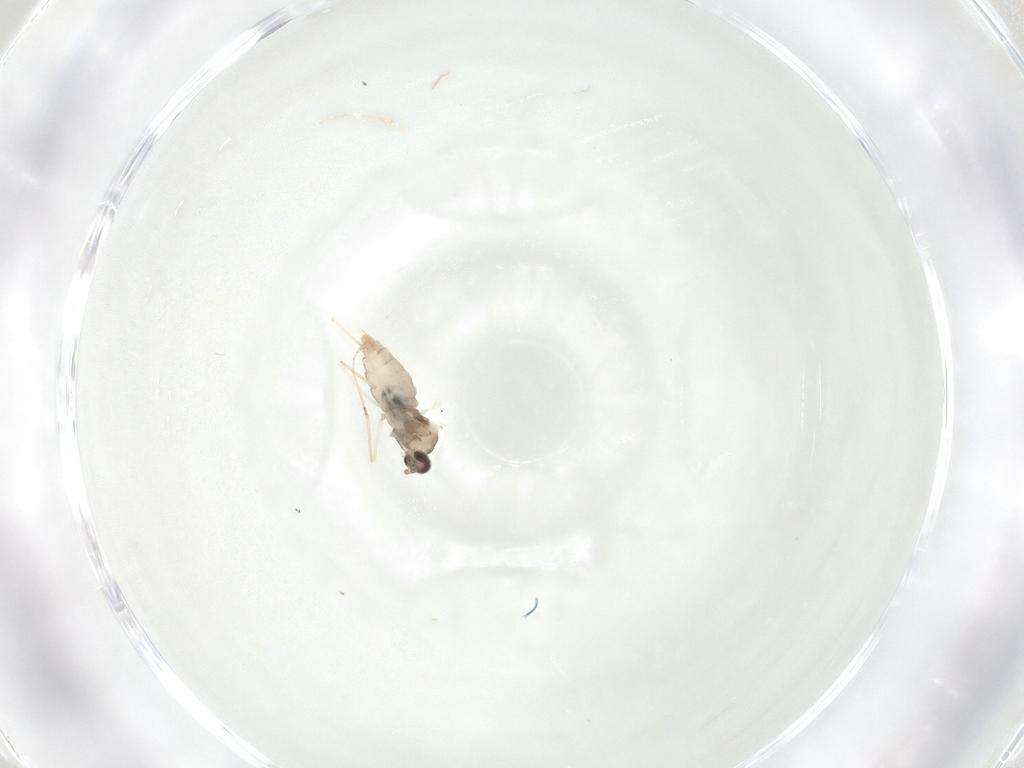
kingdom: Animalia
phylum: Arthropoda
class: Insecta
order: Diptera
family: Cecidomyiidae
